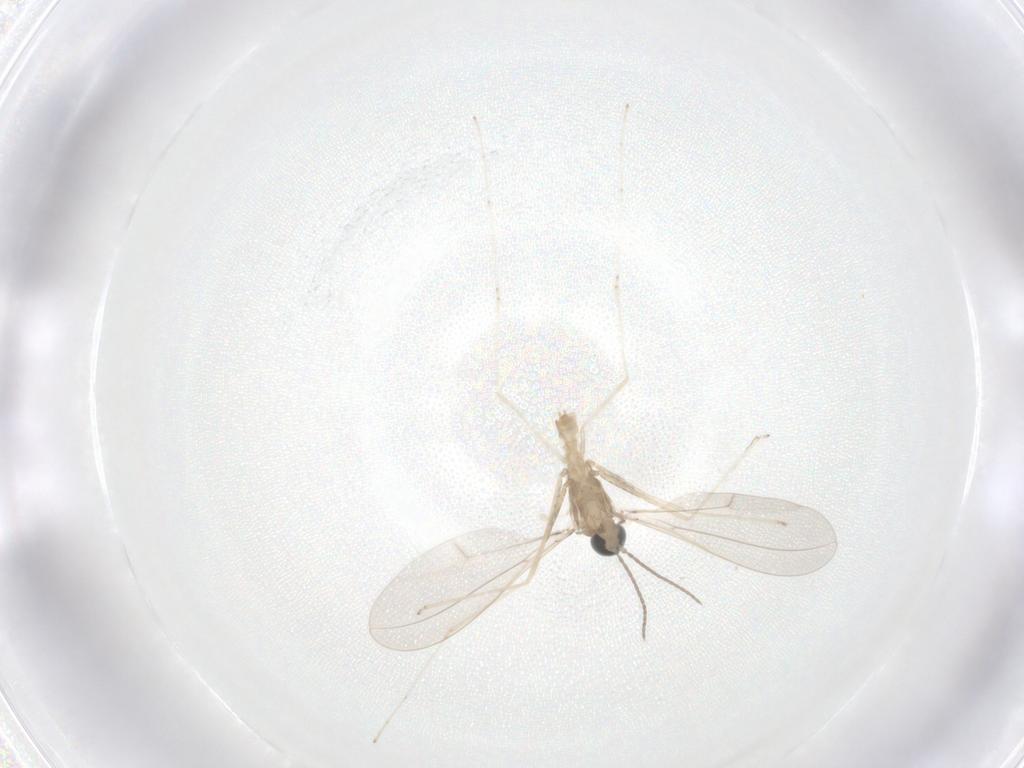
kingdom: Animalia
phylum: Arthropoda
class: Insecta
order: Diptera
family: Cecidomyiidae
